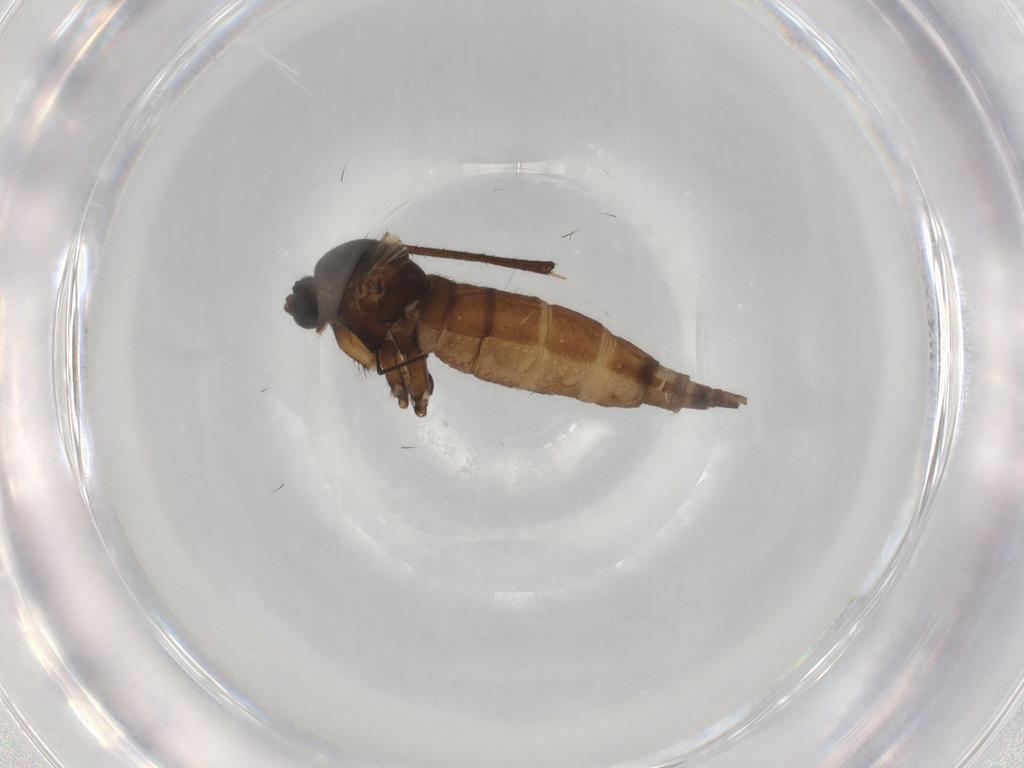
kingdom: Animalia
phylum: Arthropoda
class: Insecta
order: Diptera
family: Sciaridae
